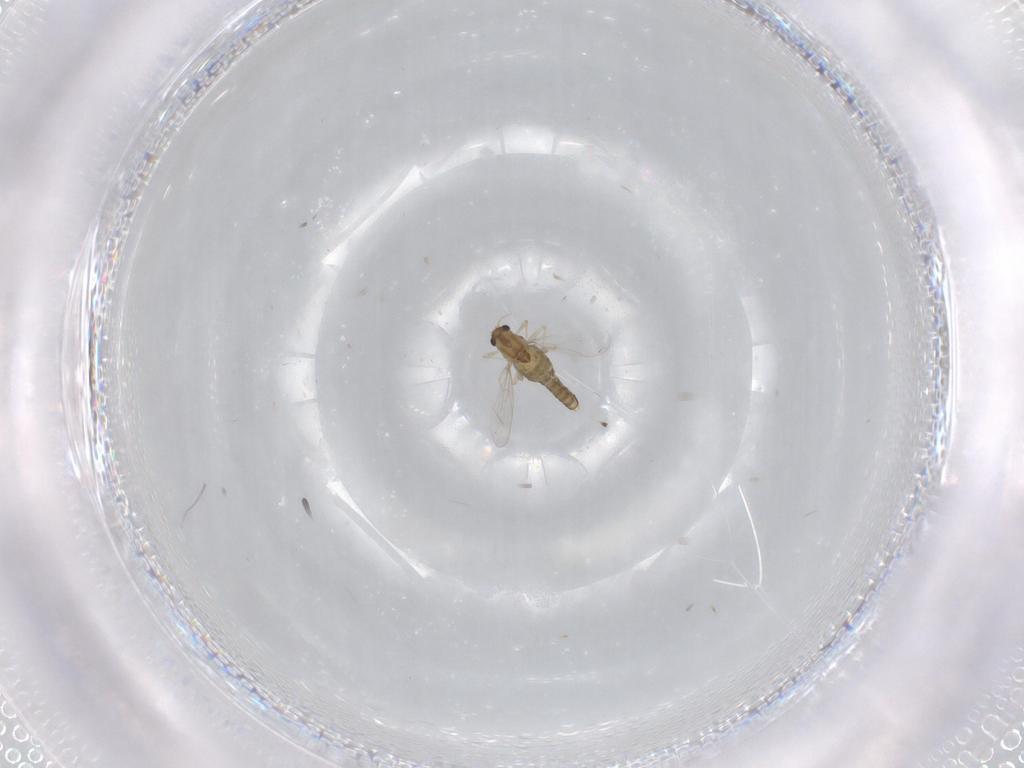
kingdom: Animalia
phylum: Arthropoda
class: Insecta
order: Diptera
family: Chironomidae
